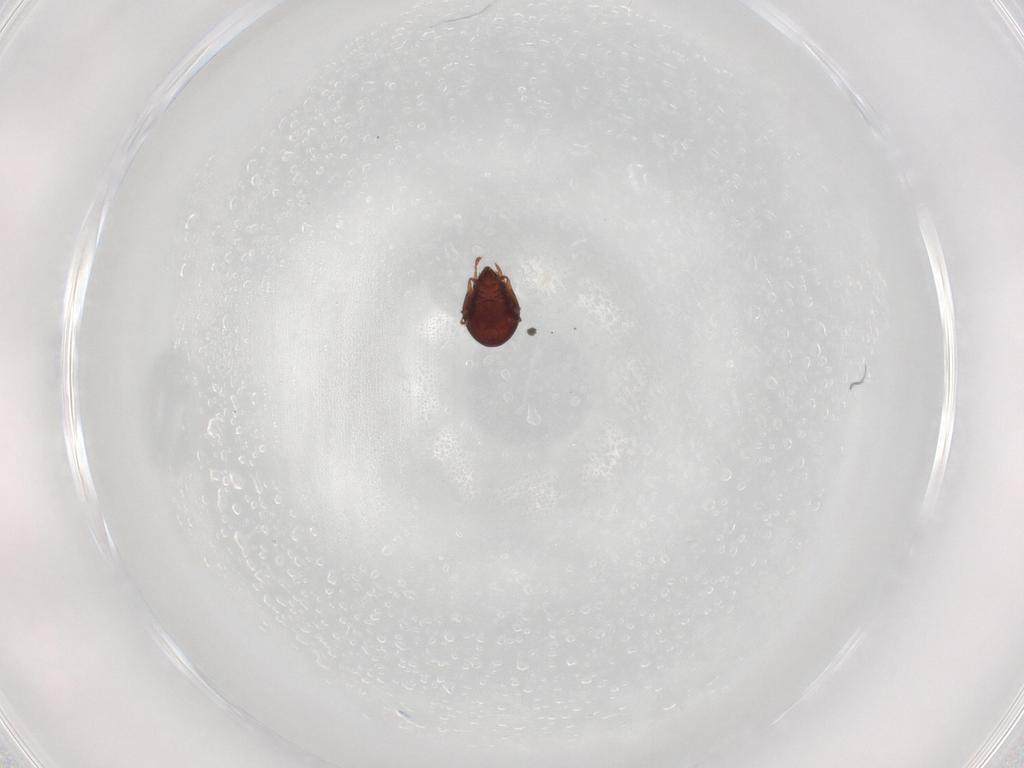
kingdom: Animalia
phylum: Arthropoda
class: Arachnida
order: Sarcoptiformes
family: Ceratozetidae
